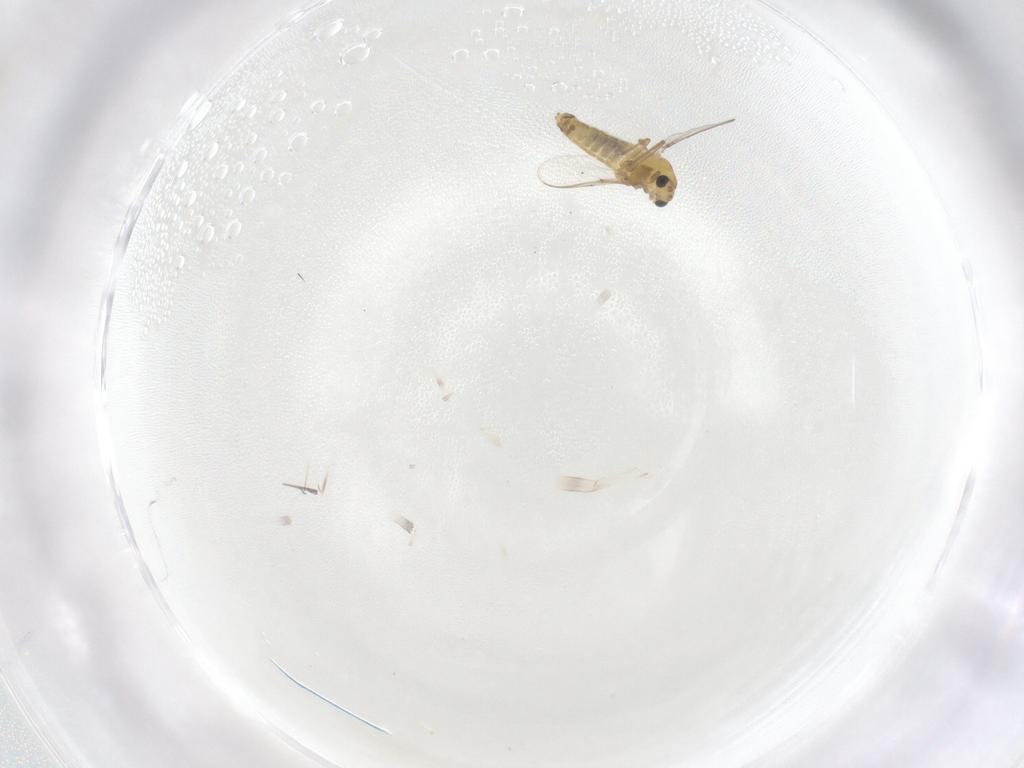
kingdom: Animalia
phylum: Arthropoda
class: Insecta
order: Diptera
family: Chironomidae
